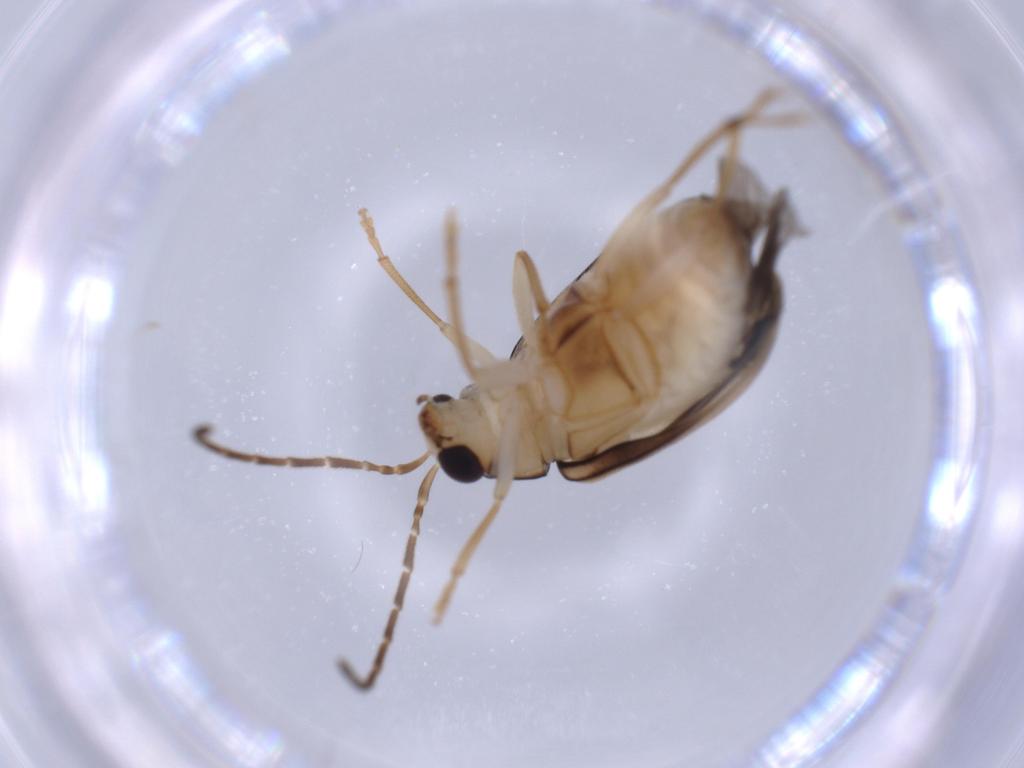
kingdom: Animalia
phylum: Arthropoda
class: Insecta
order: Coleoptera
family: Chrysomelidae
